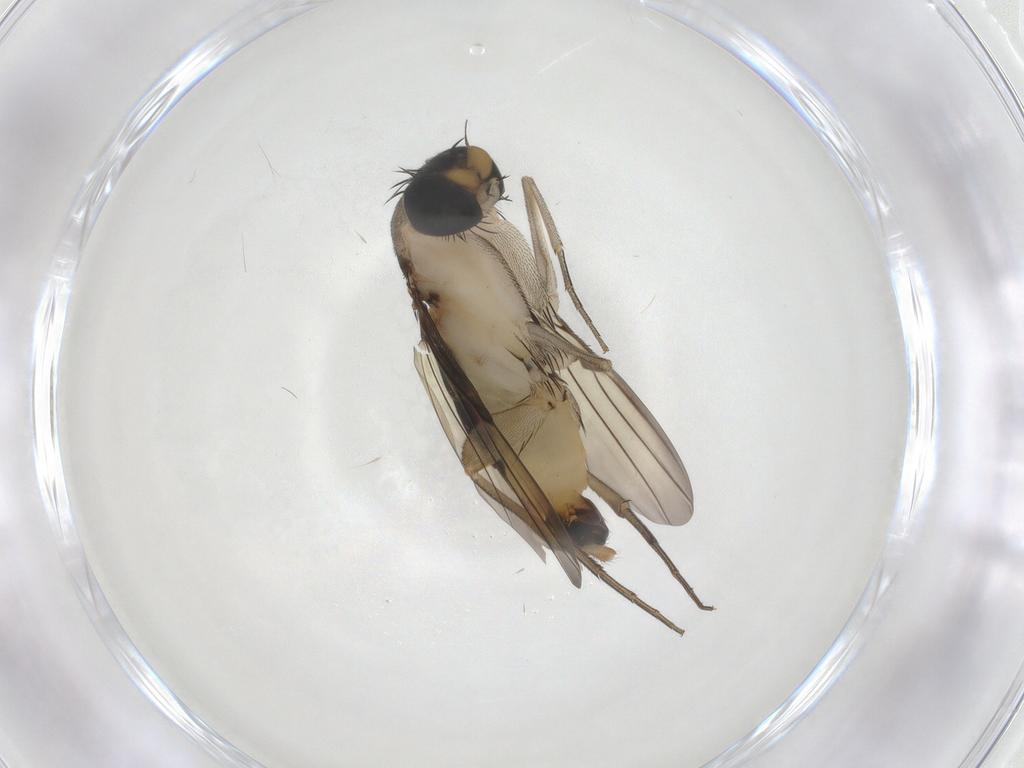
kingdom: Animalia
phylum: Arthropoda
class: Insecta
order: Diptera
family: Phoridae
